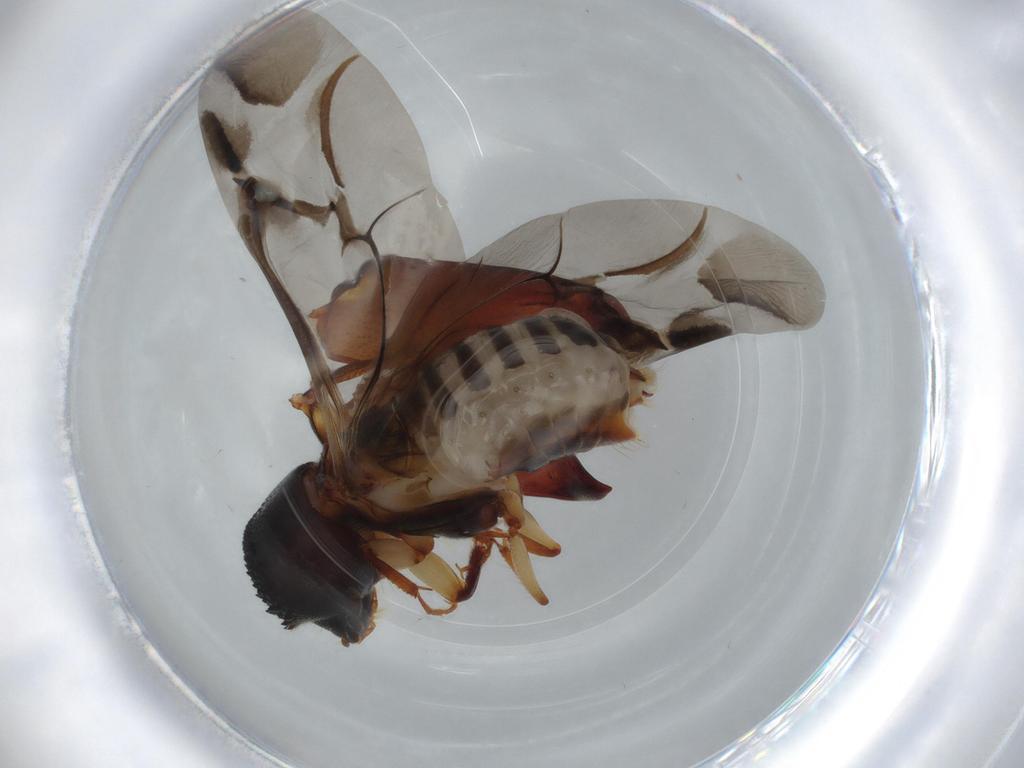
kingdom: Animalia
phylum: Arthropoda
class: Insecta
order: Coleoptera
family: Bostrichidae
